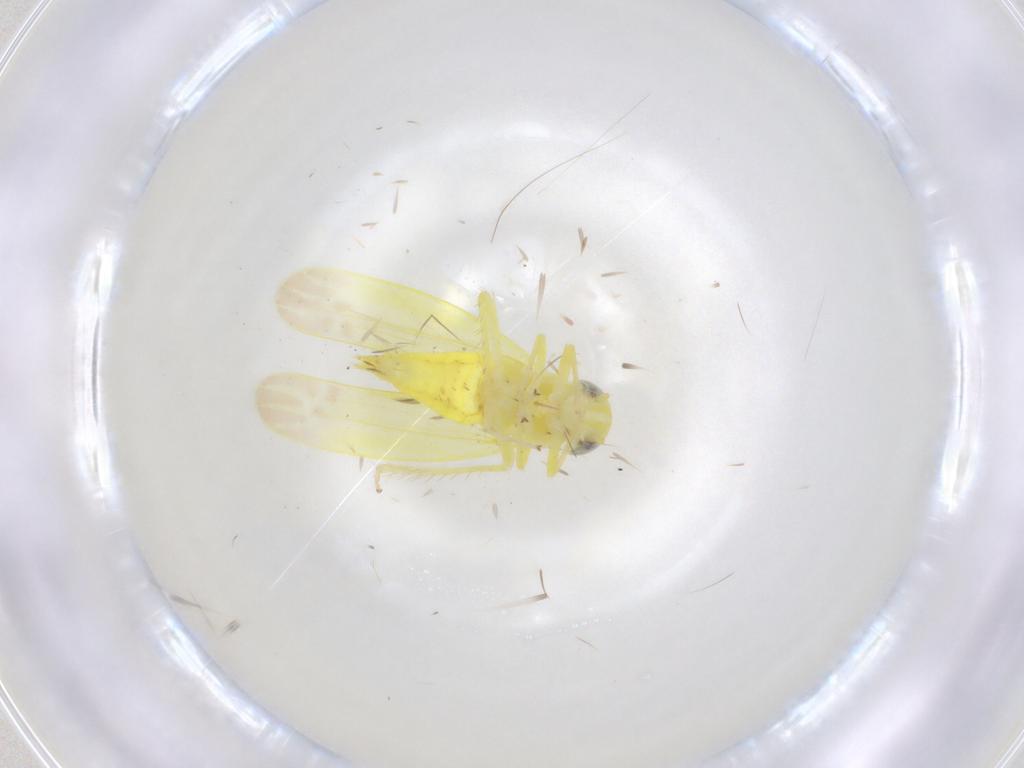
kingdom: Animalia
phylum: Arthropoda
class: Insecta
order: Hemiptera
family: Cicadellidae
